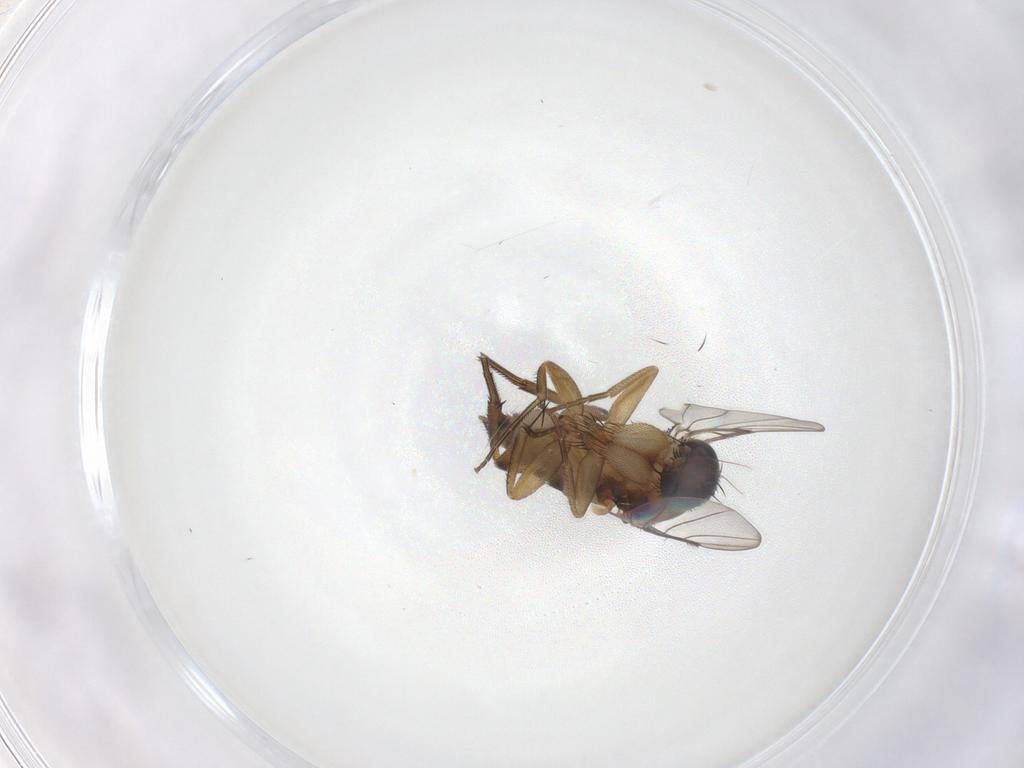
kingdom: Animalia
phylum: Arthropoda
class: Insecta
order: Diptera
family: Phoridae
